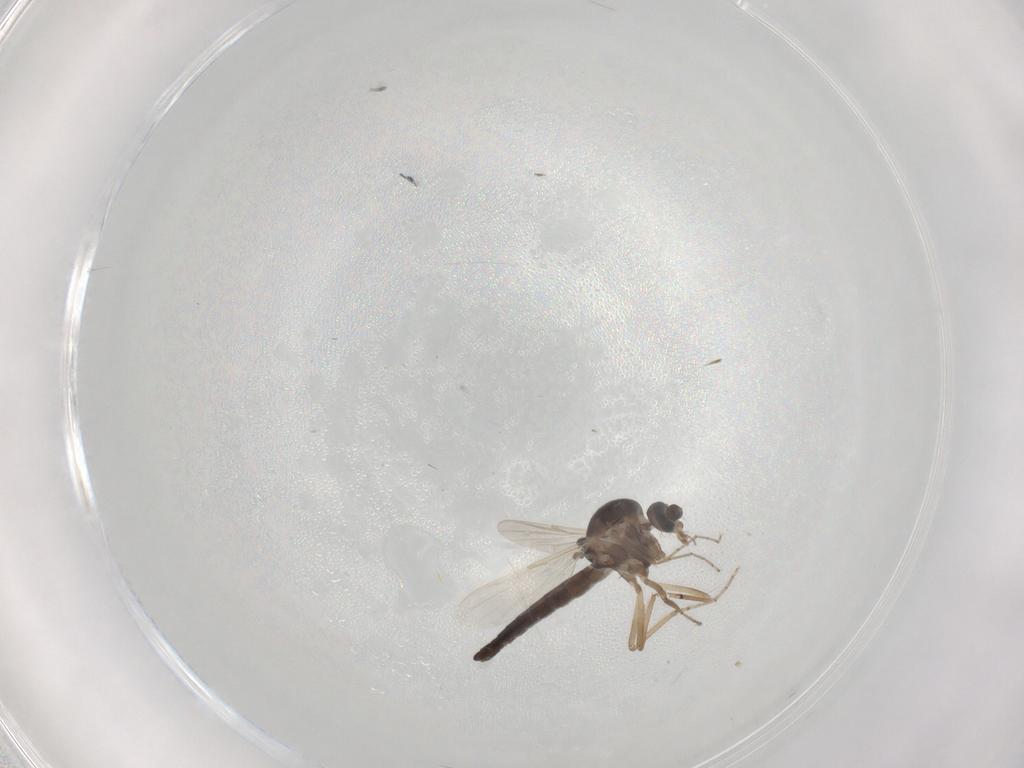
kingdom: Animalia
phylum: Arthropoda
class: Insecta
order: Diptera
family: Ceratopogonidae
